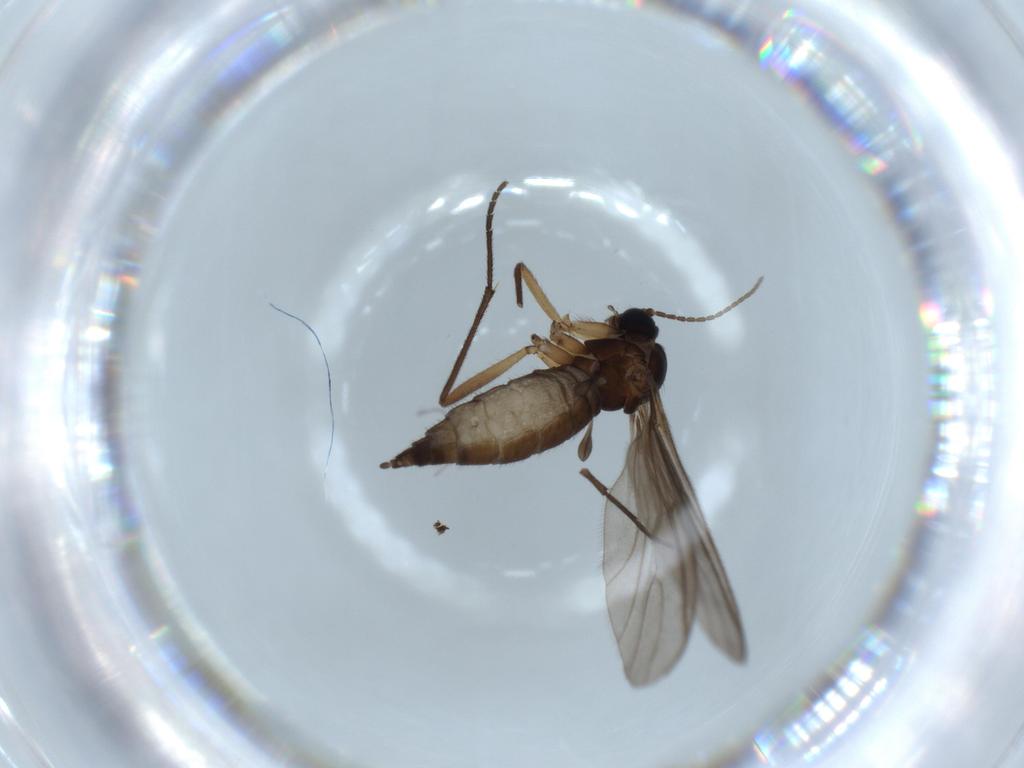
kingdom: Animalia
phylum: Arthropoda
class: Insecta
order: Diptera
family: Sciaridae
